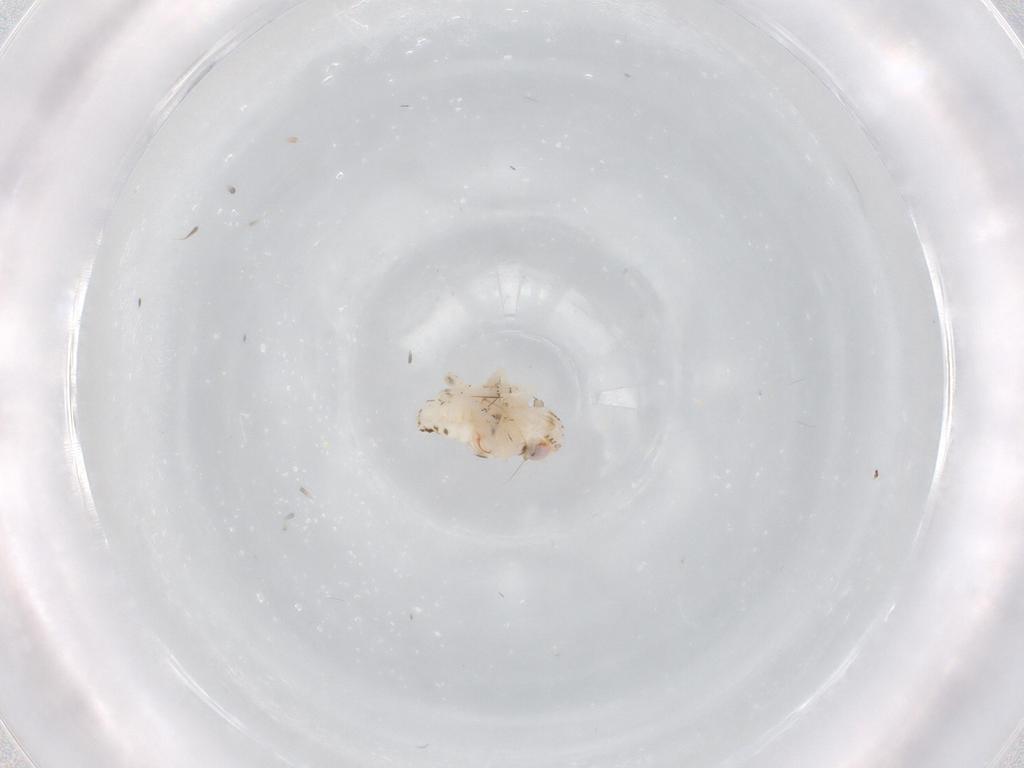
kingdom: Animalia
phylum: Arthropoda
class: Insecta
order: Hemiptera
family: Nogodinidae
